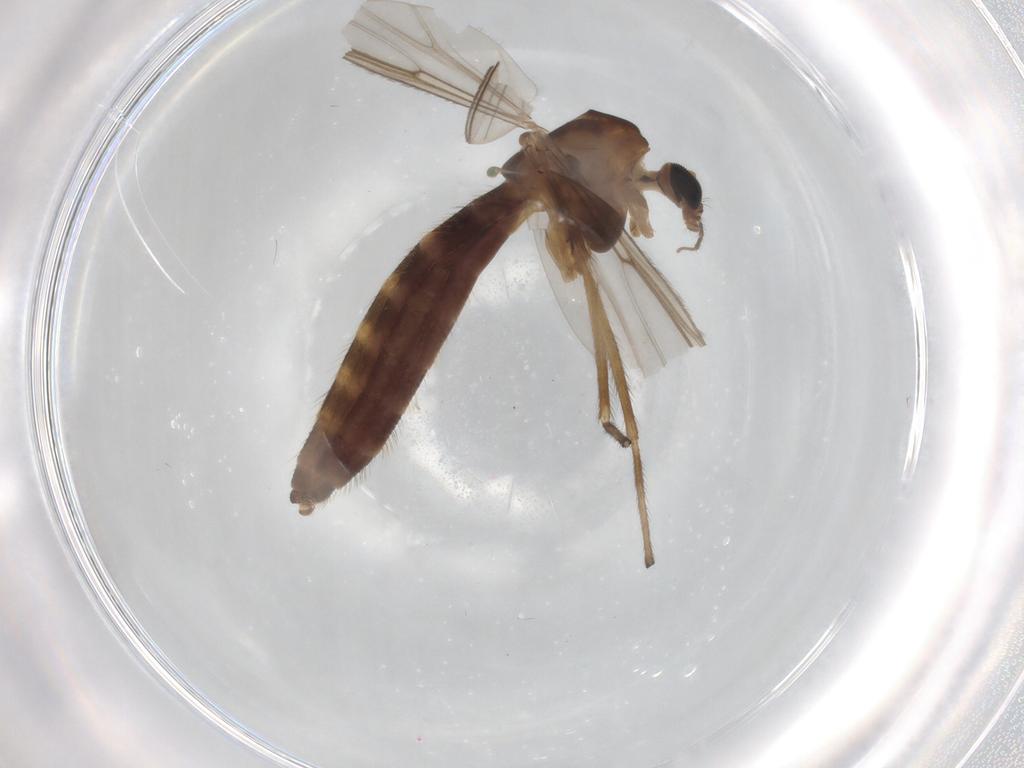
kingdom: Animalia
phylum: Arthropoda
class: Insecta
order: Diptera
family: Chironomidae
